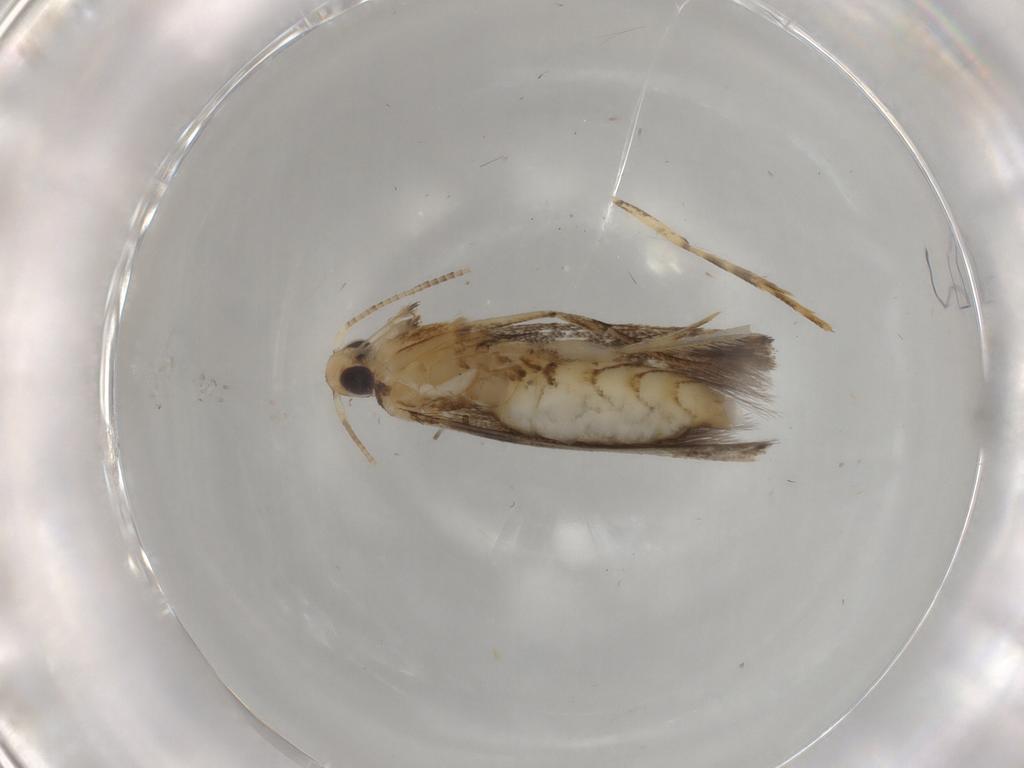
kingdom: Animalia
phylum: Arthropoda
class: Insecta
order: Lepidoptera
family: Gracillariidae
